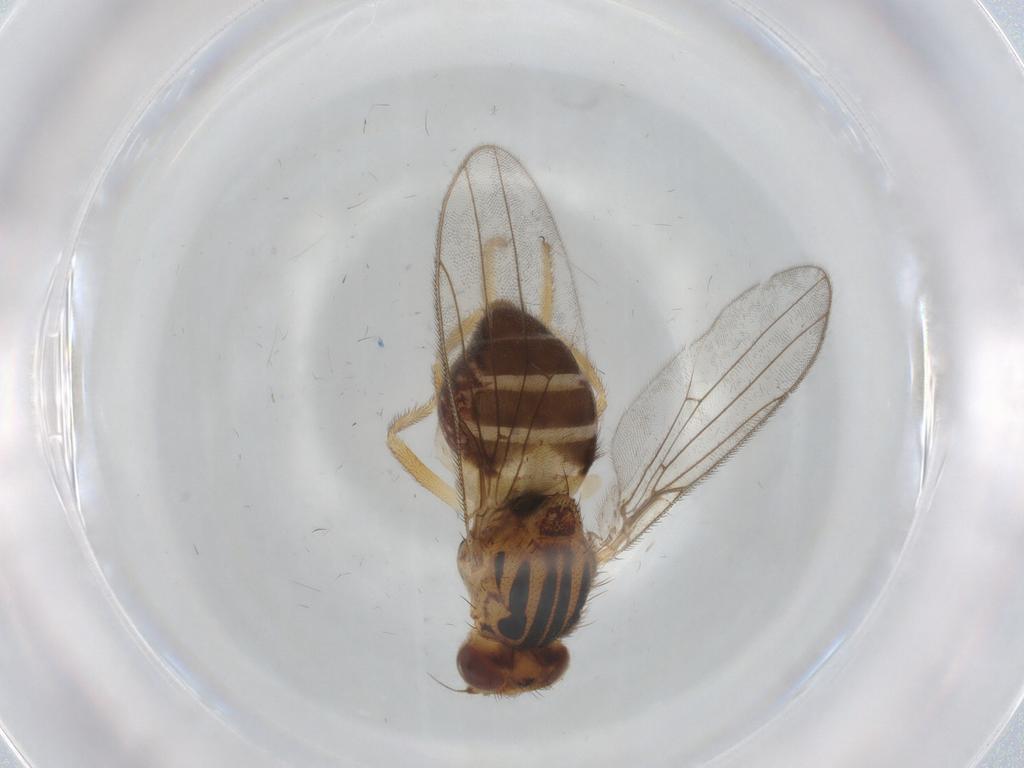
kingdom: Animalia
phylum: Arthropoda
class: Insecta
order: Diptera
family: Chloropidae
